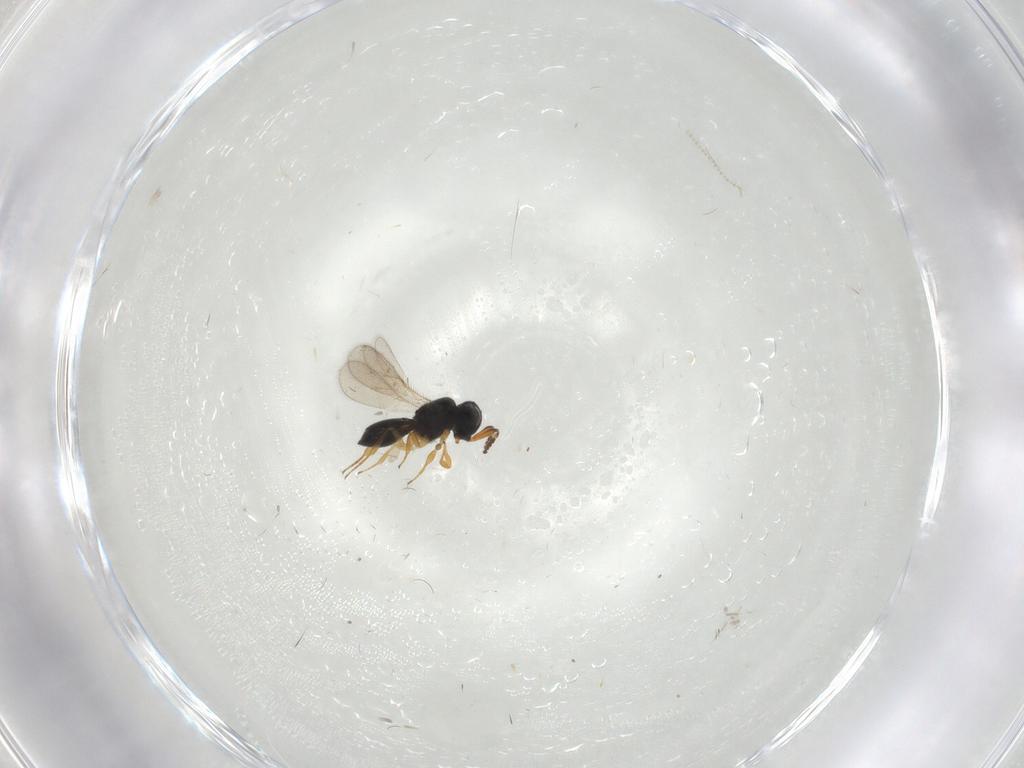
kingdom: Animalia
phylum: Arthropoda
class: Insecta
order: Hymenoptera
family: Scelionidae
